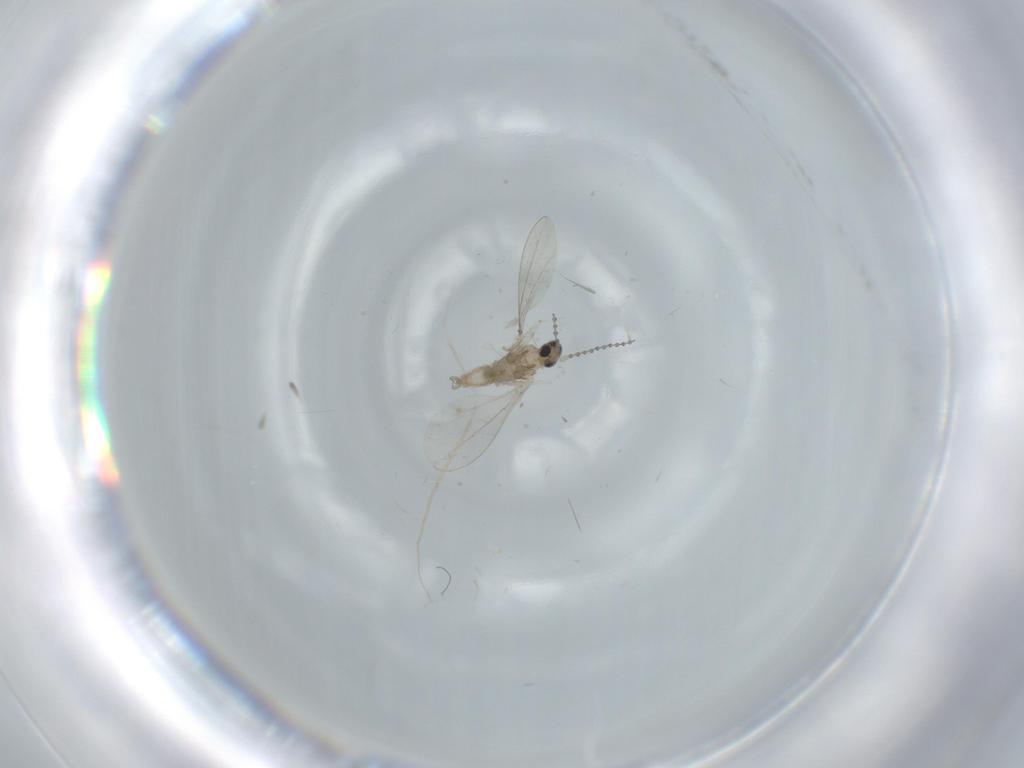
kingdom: Animalia
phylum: Arthropoda
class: Insecta
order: Diptera
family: Cecidomyiidae
